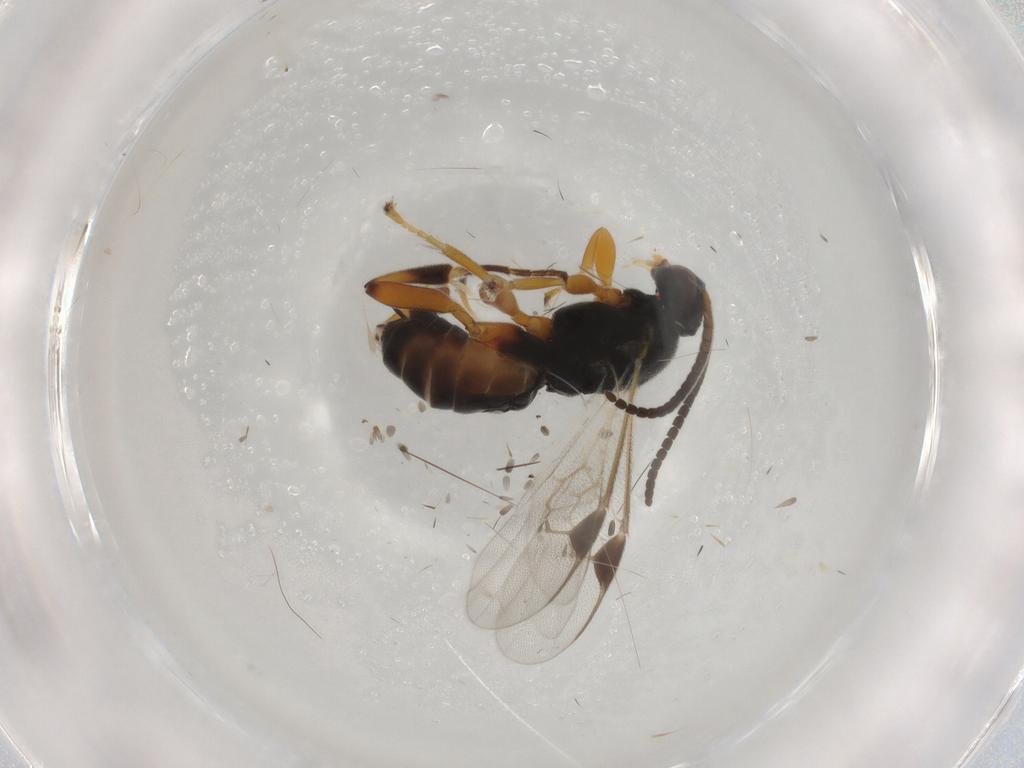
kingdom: Animalia
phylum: Arthropoda
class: Insecta
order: Hymenoptera
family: Braconidae
